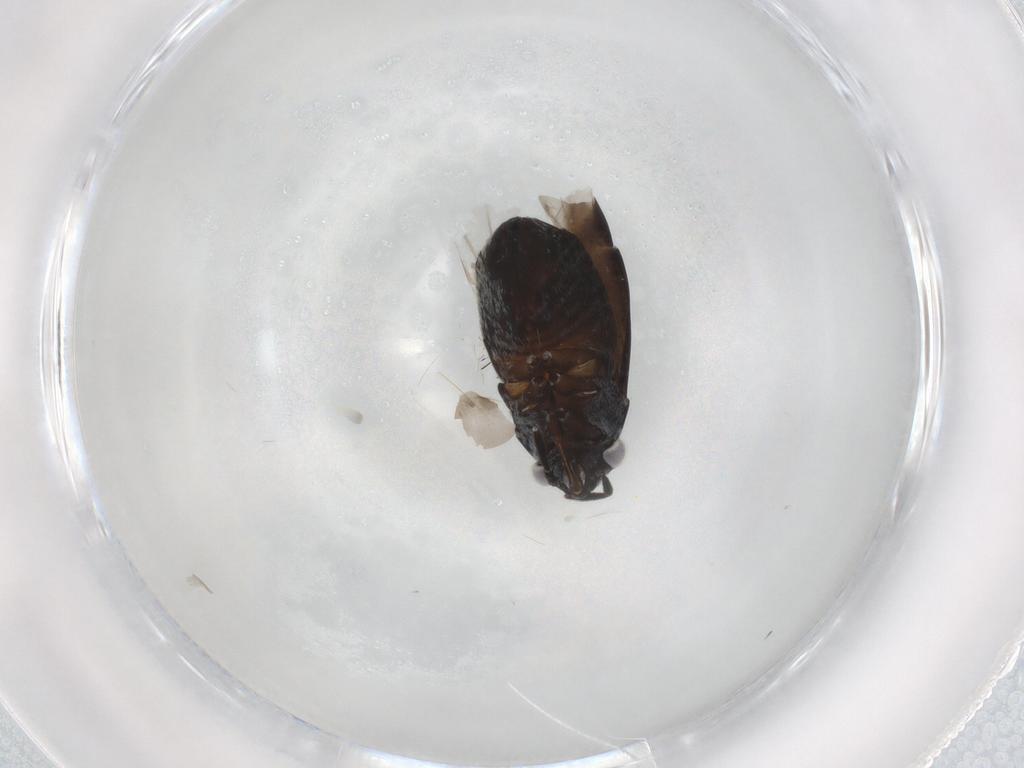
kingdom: Animalia
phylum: Arthropoda
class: Insecta
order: Hemiptera
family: Miridae
